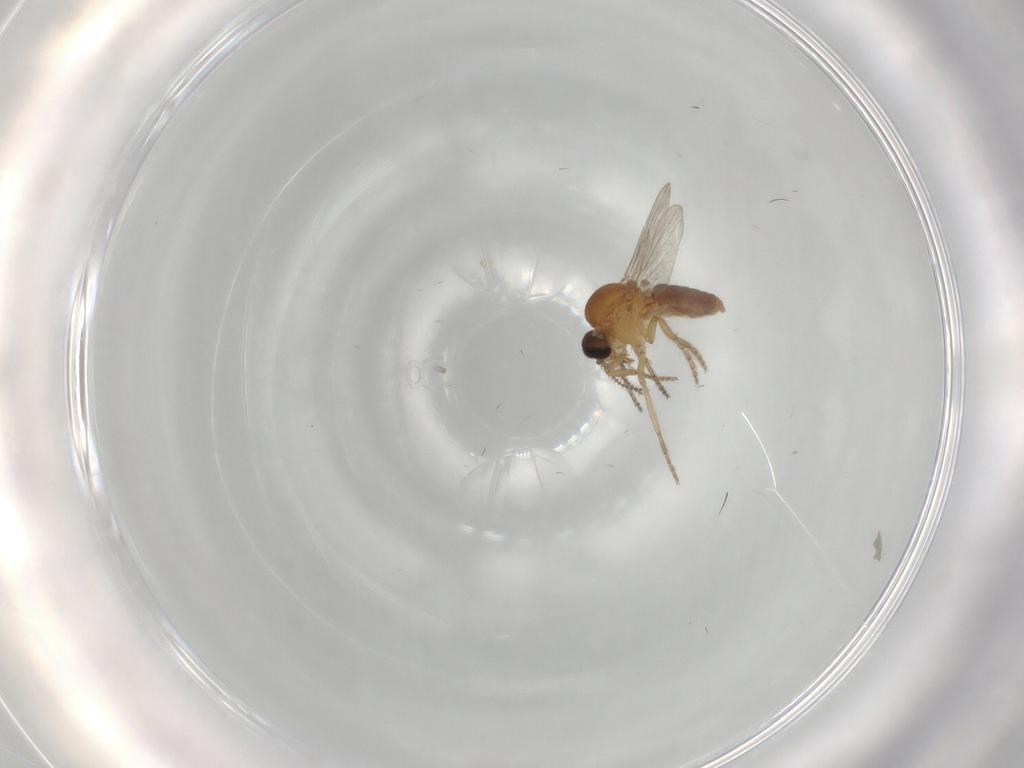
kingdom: Animalia
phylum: Arthropoda
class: Insecta
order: Diptera
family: Ceratopogonidae
